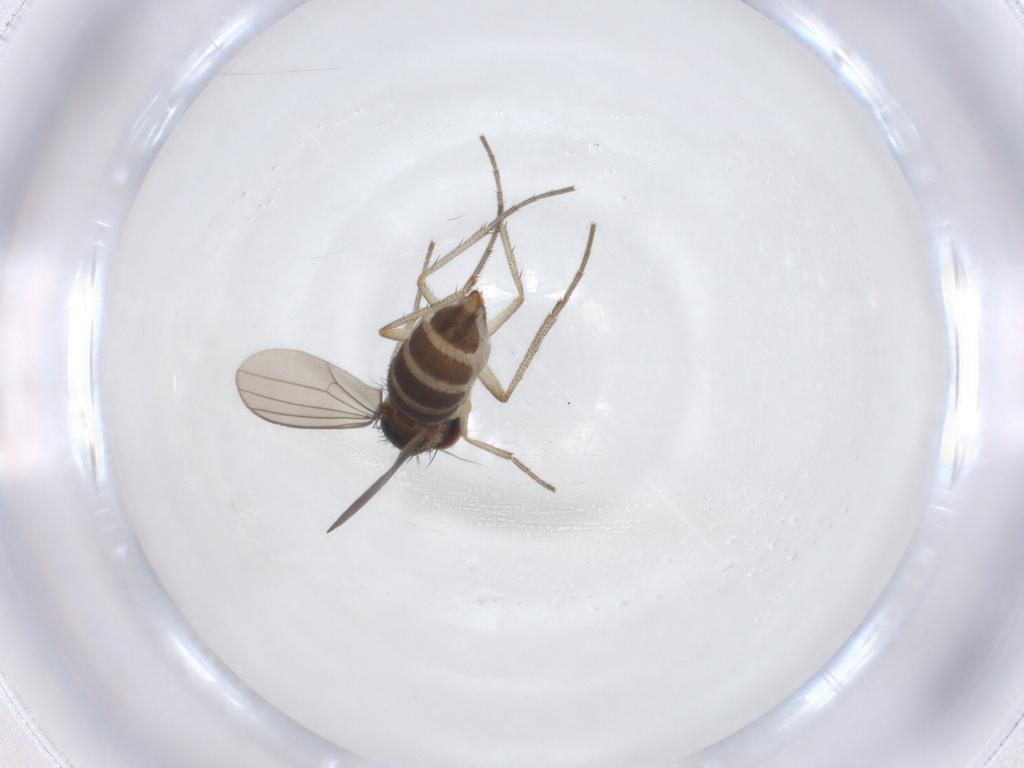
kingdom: Animalia
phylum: Arthropoda
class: Insecta
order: Diptera
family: Dolichopodidae
